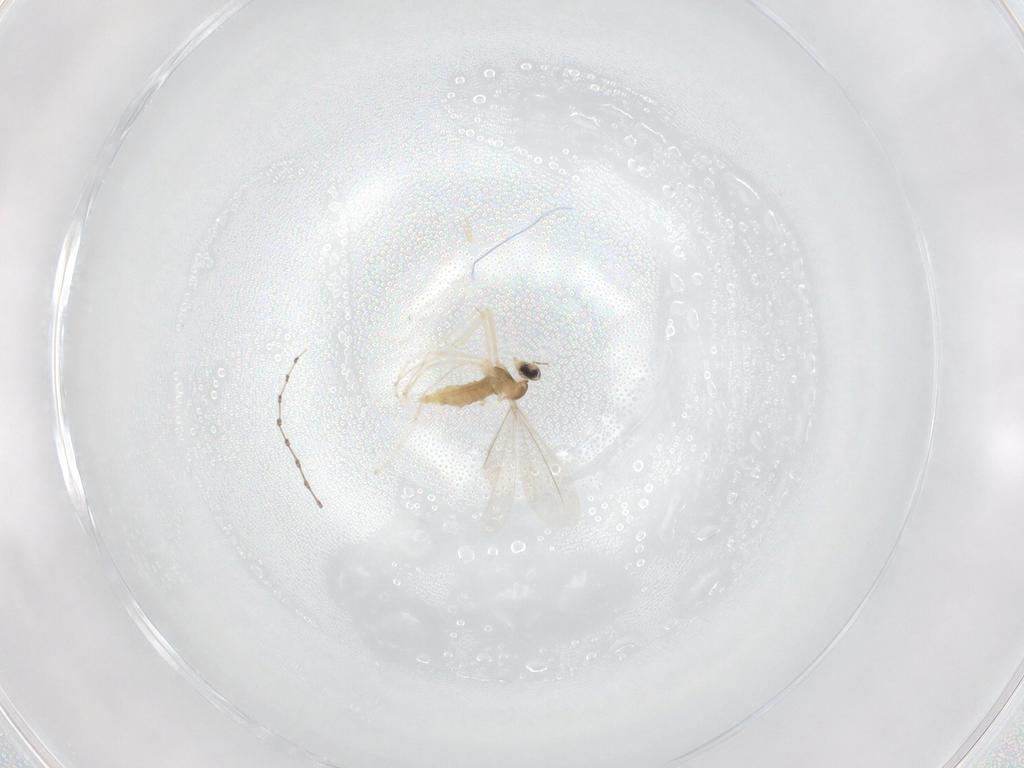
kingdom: Animalia
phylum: Arthropoda
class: Insecta
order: Diptera
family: Cecidomyiidae
